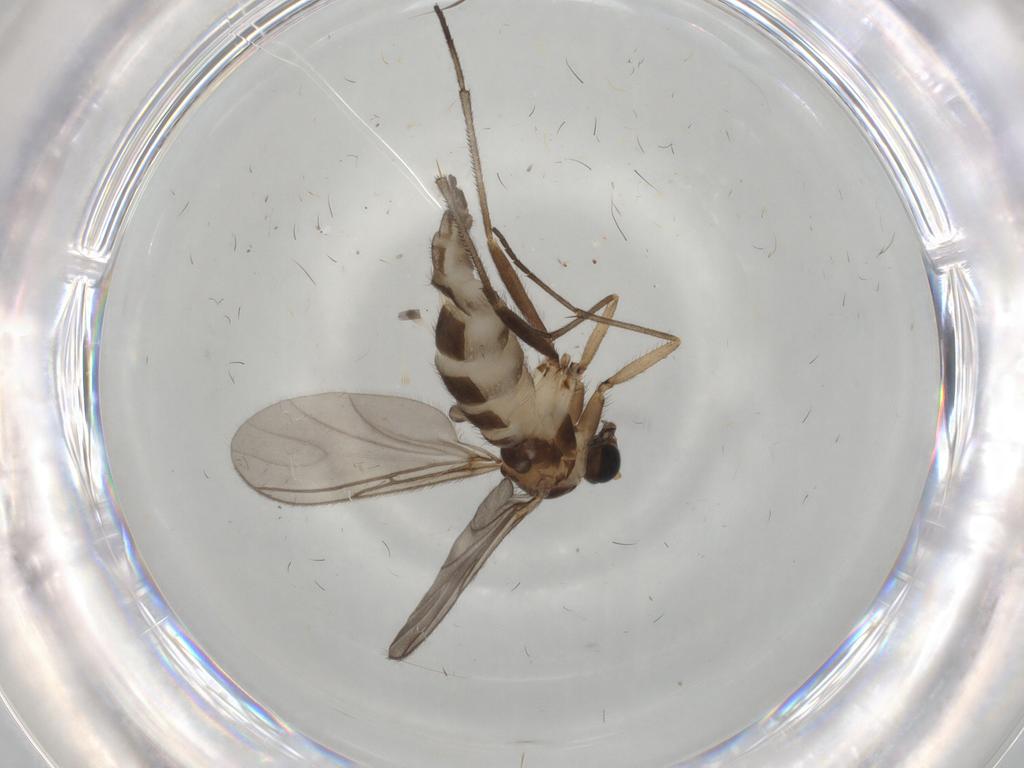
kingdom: Animalia
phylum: Arthropoda
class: Insecta
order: Diptera
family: Sciaridae
